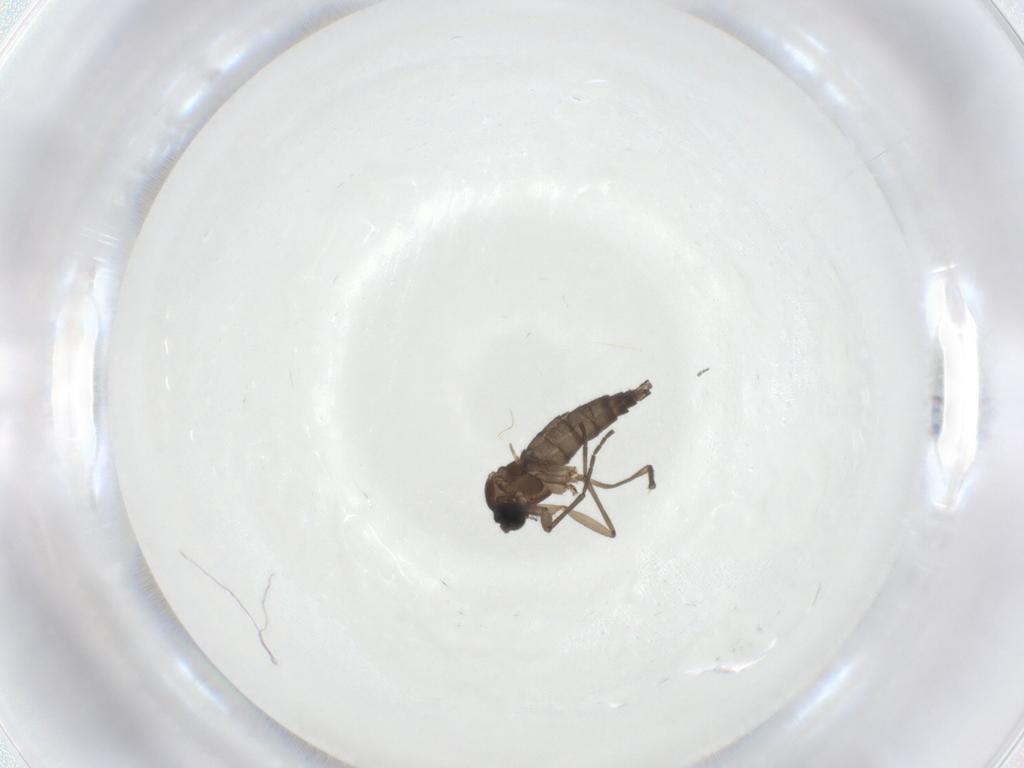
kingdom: Animalia
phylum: Arthropoda
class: Insecta
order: Diptera
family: Sciaridae
